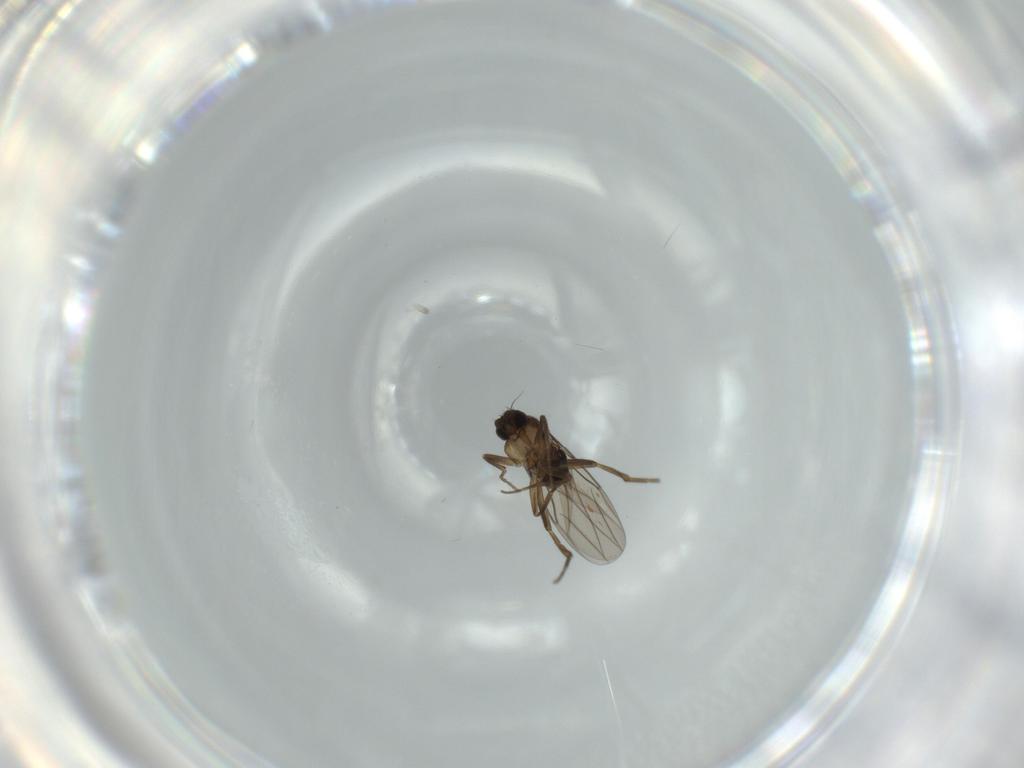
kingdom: Animalia
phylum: Arthropoda
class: Insecta
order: Diptera
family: Phoridae
